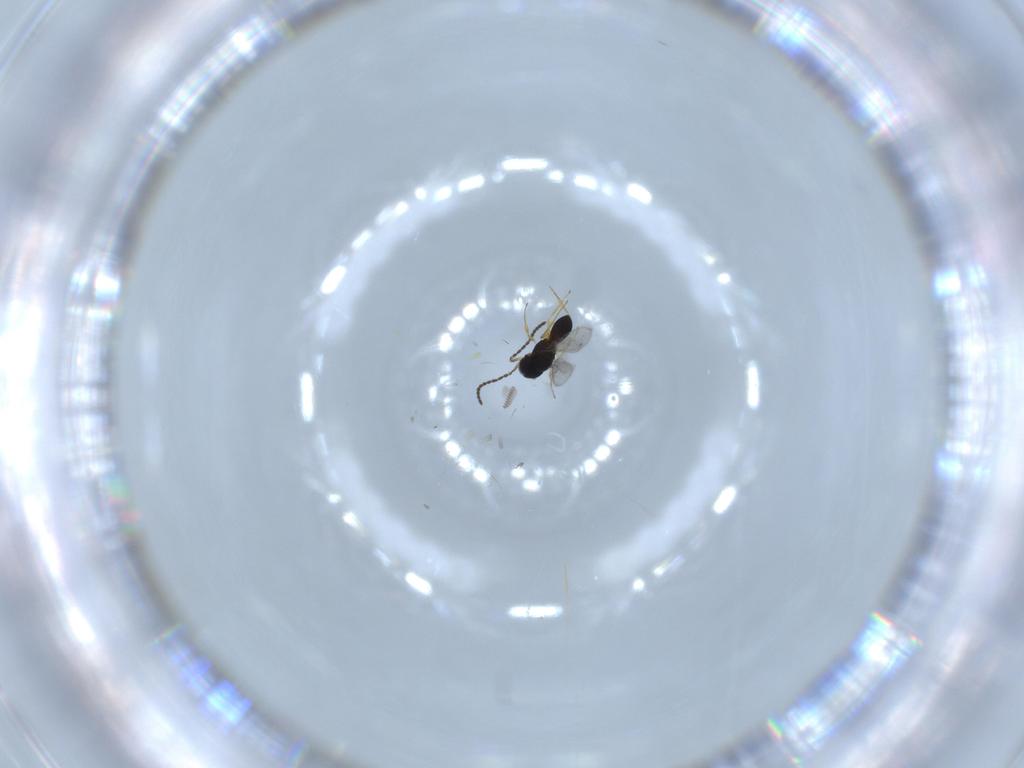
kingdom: Animalia
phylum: Arthropoda
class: Insecta
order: Hymenoptera
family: Scelionidae
